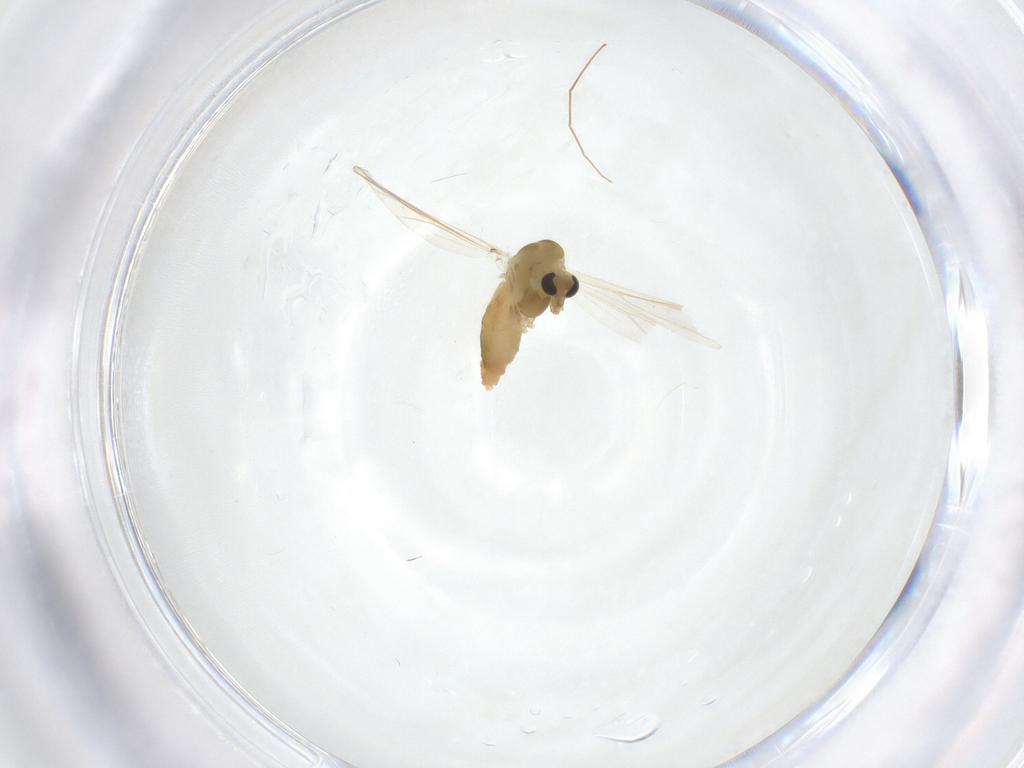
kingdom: Animalia
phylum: Arthropoda
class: Insecta
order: Diptera
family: Chironomidae
